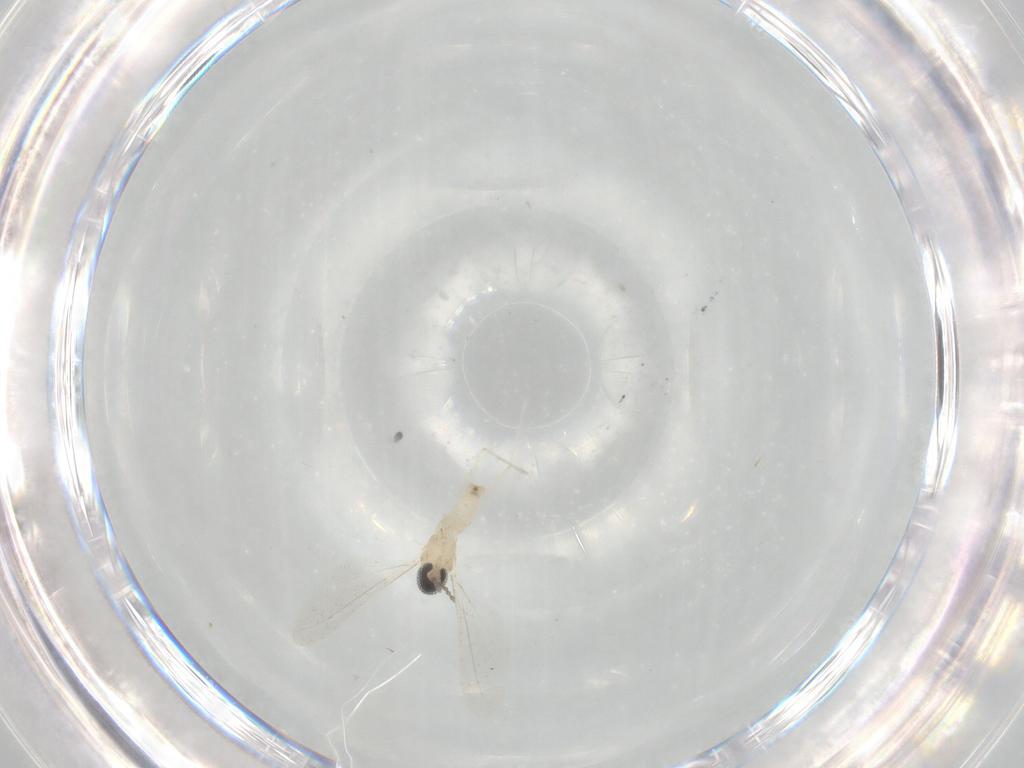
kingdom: Animalia
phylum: Arthropoda
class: Insecta
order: Diptera
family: Cecidomyiidae
